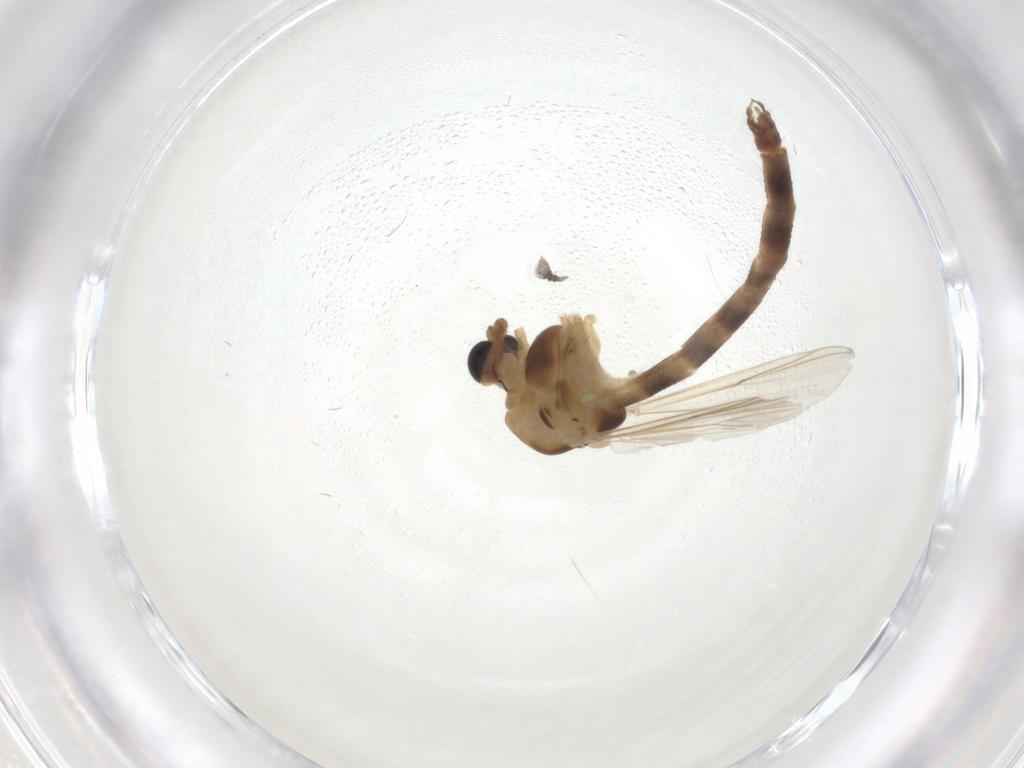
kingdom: Animalia
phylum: Arthropoda
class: Insecta
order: Diptera
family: Chironomidae
